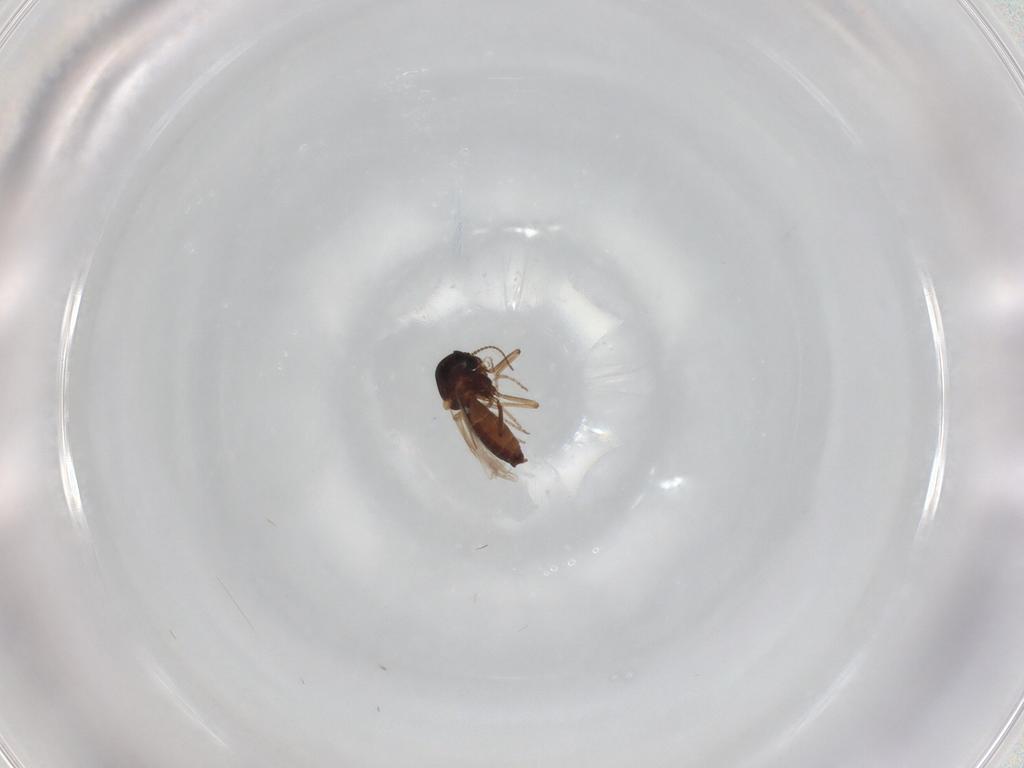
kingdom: Animalia
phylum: Arthropoda
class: Insecta
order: Diptera
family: Ceratopogonidae
